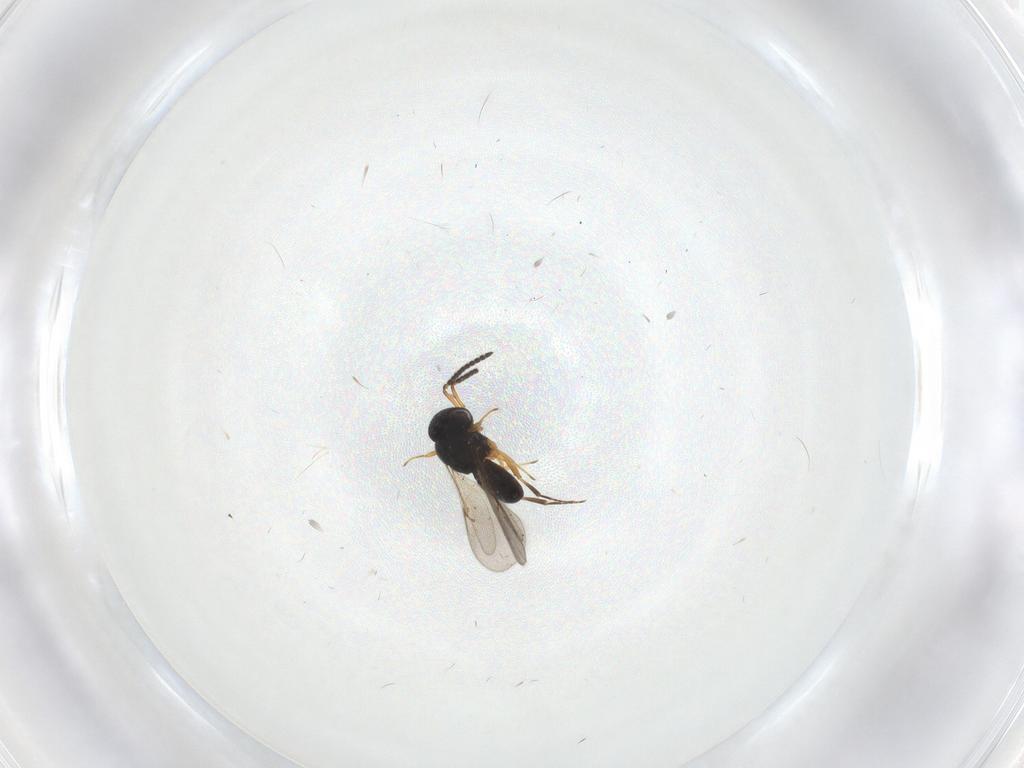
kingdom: Animalia
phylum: Arthropoda
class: Insecta
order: Hymenoptera
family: Scelionidae
